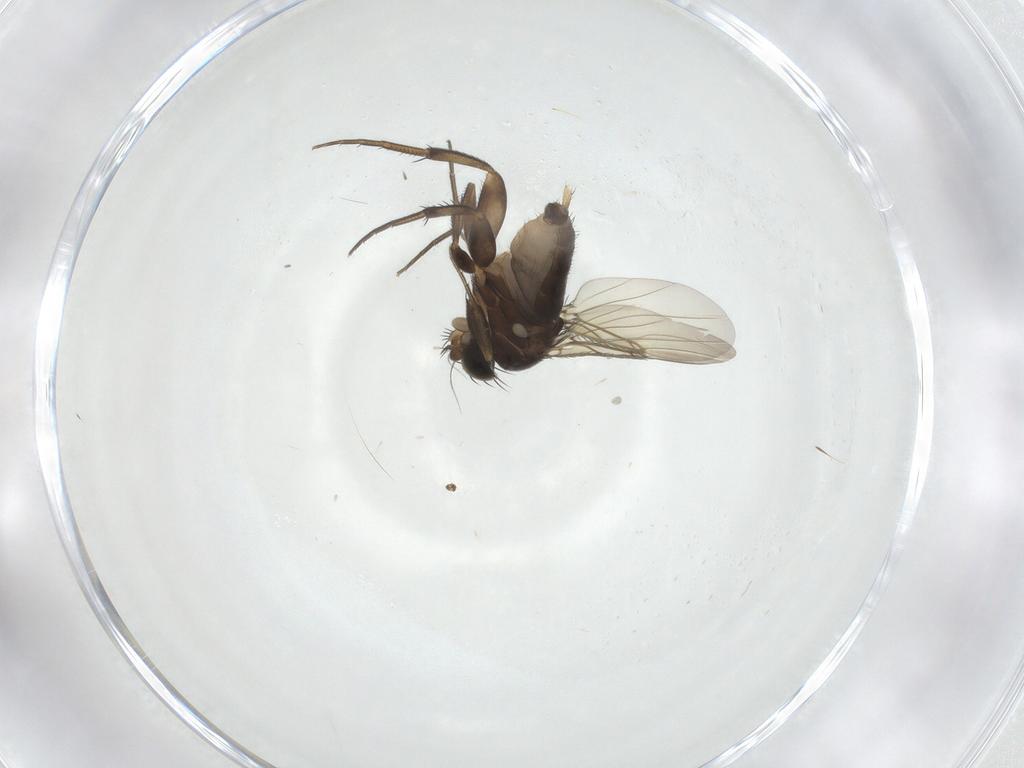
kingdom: Animalia
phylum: Arthropoda
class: Insecta
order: Diptera
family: Phoridae
